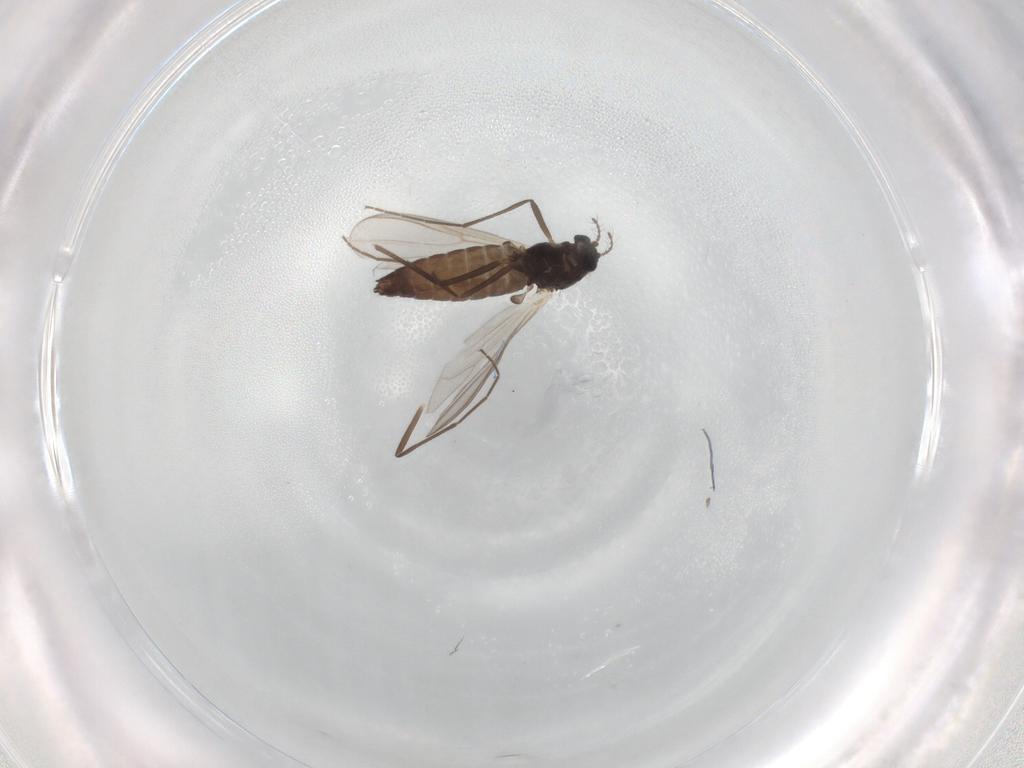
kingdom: Animalia
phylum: Arthropoda
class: Insecta
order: Diptera
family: Chironomidae
